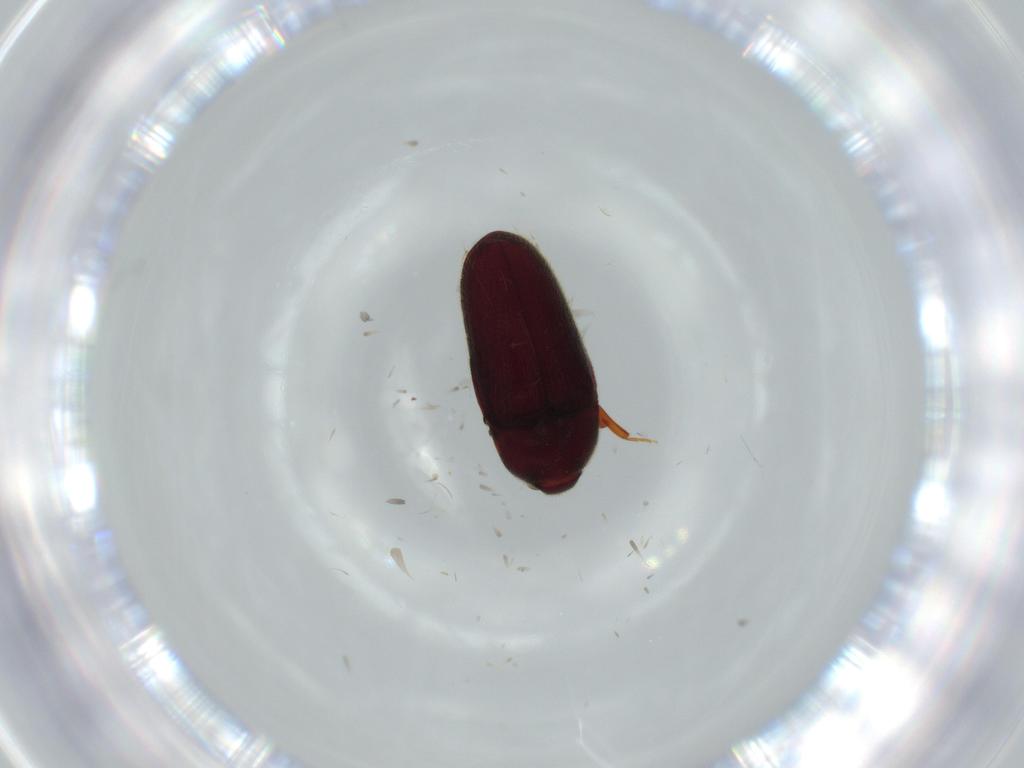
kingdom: Animalia
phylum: Arthropoda
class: Insecta
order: Coleoptera
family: Throscidae
